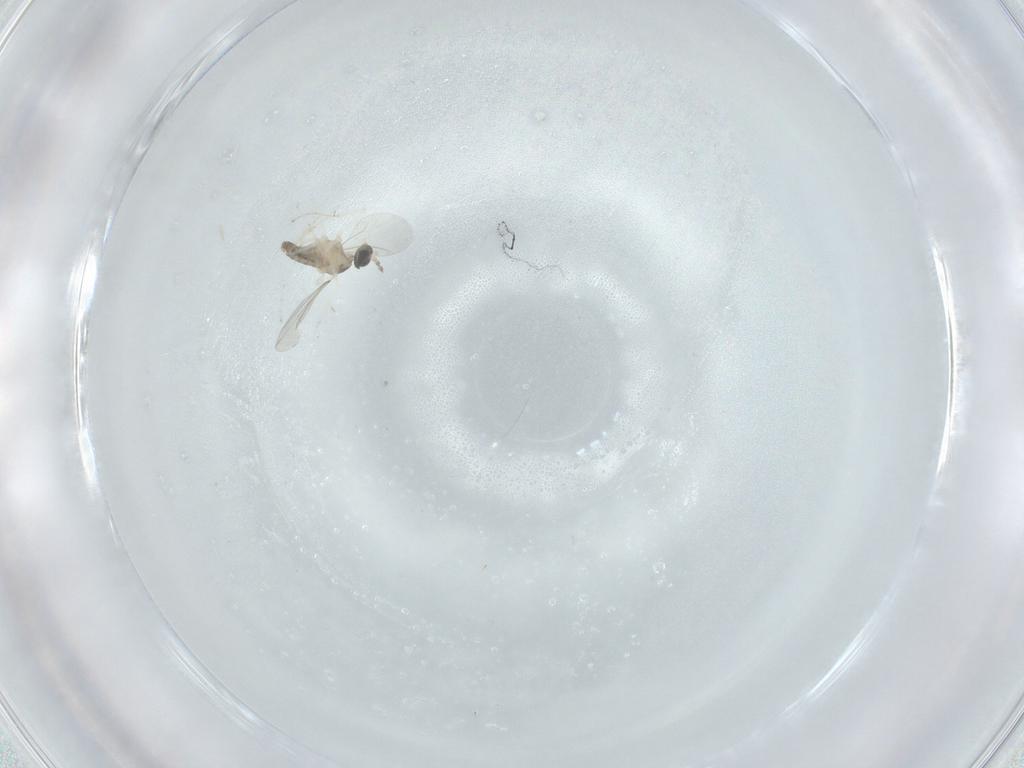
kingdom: Animalia
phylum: Arthropoda
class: Insecta
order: Diptera
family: Cecidomyiidae
